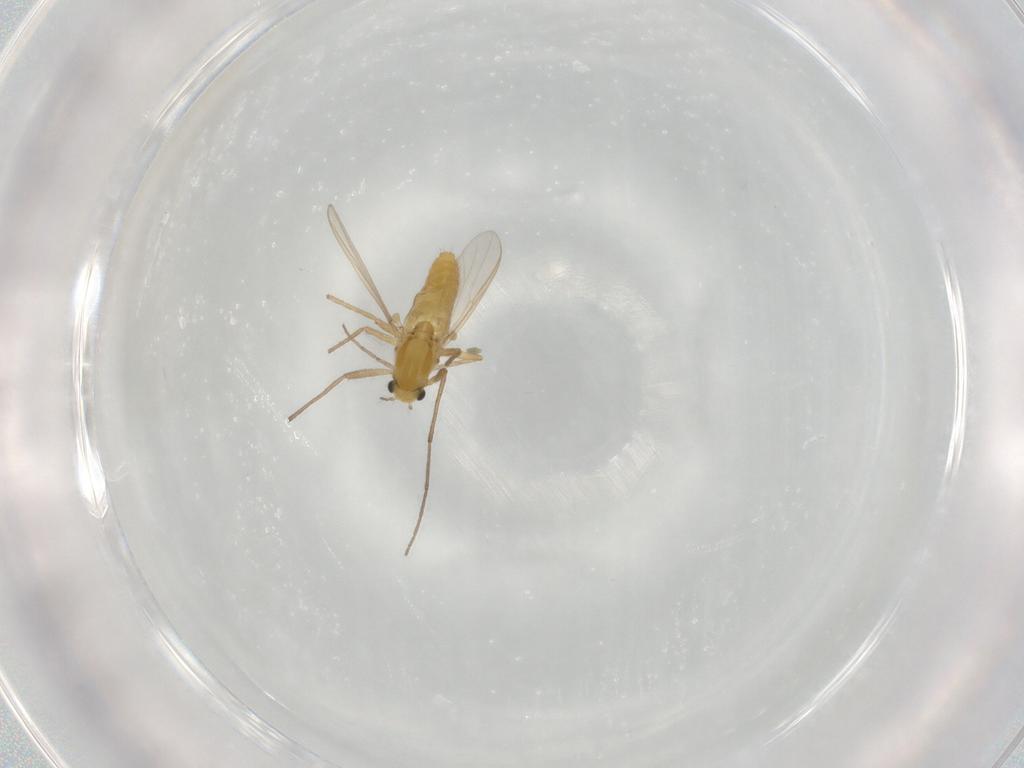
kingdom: Animalia
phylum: Arthropoda
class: Insecta
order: Diptera
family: Chironomidae
